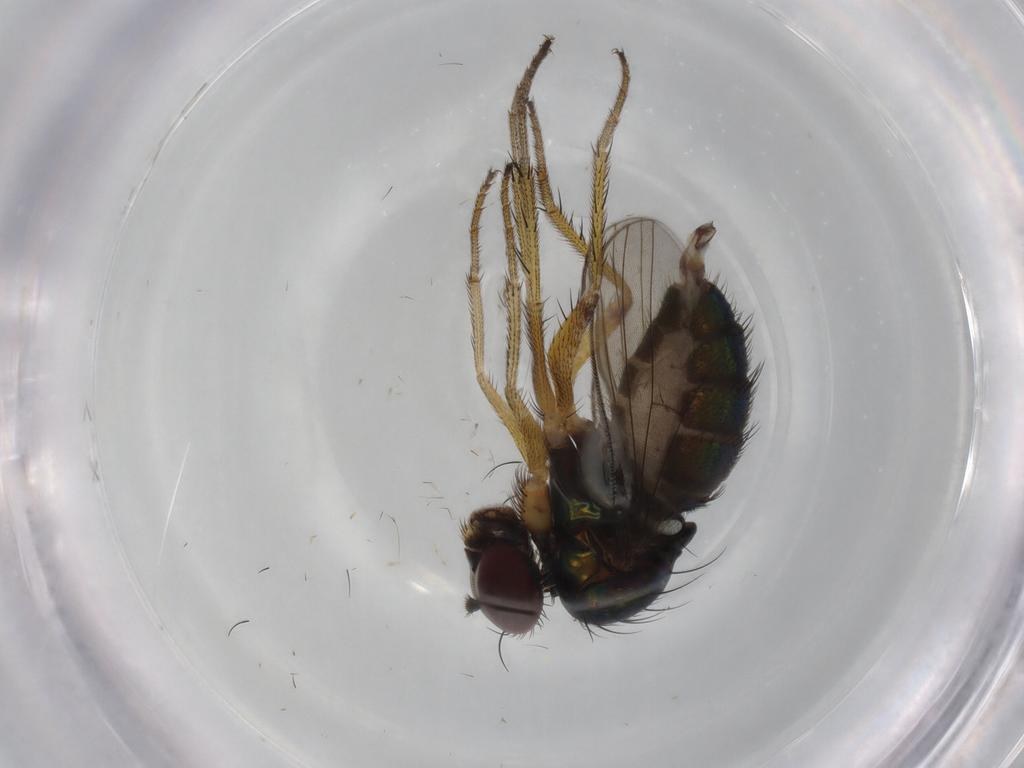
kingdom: Animalia
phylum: Arthropoda
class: Insecta
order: Diptera
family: Dolichopodidae
